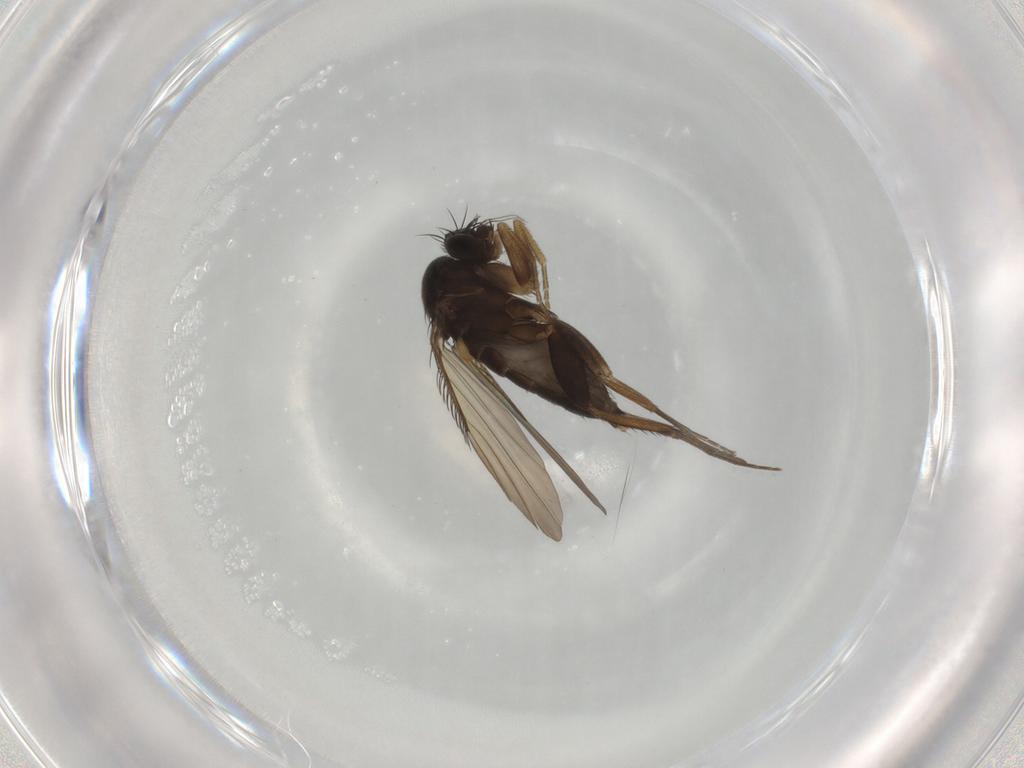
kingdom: Animalia
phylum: Arthropoda
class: Insecta
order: Diptera
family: Phoridae
